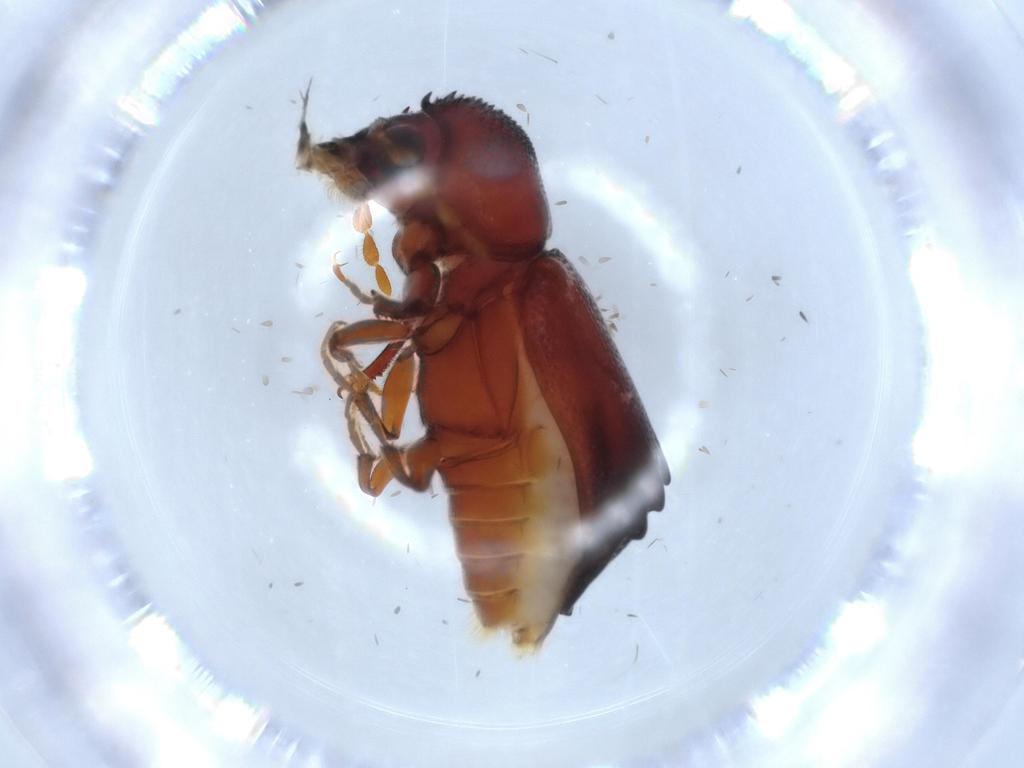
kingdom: Animalia
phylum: Arthropoda
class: Insecta
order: Coleoptera
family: Bostrichidae
